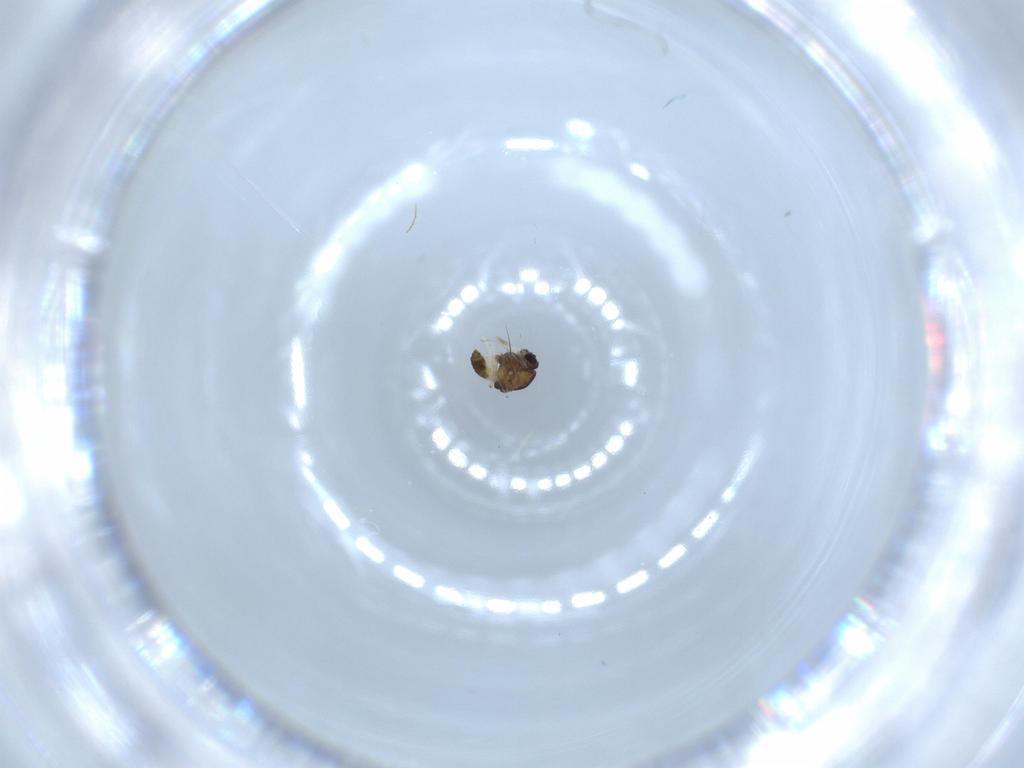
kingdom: Animalia
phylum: Arthropoda
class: Insecta
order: Diptera
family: Chironomidae
